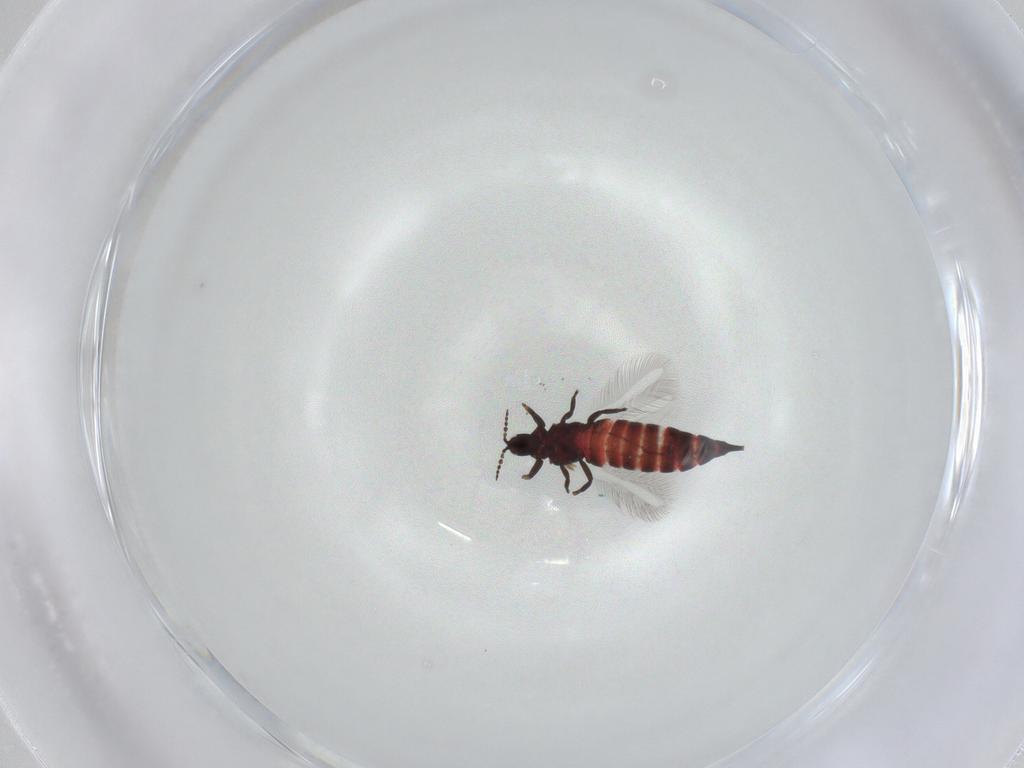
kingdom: Animalia
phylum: Arthropoda
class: Insecta
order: Thysanoptera
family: Phlaeothripidae
